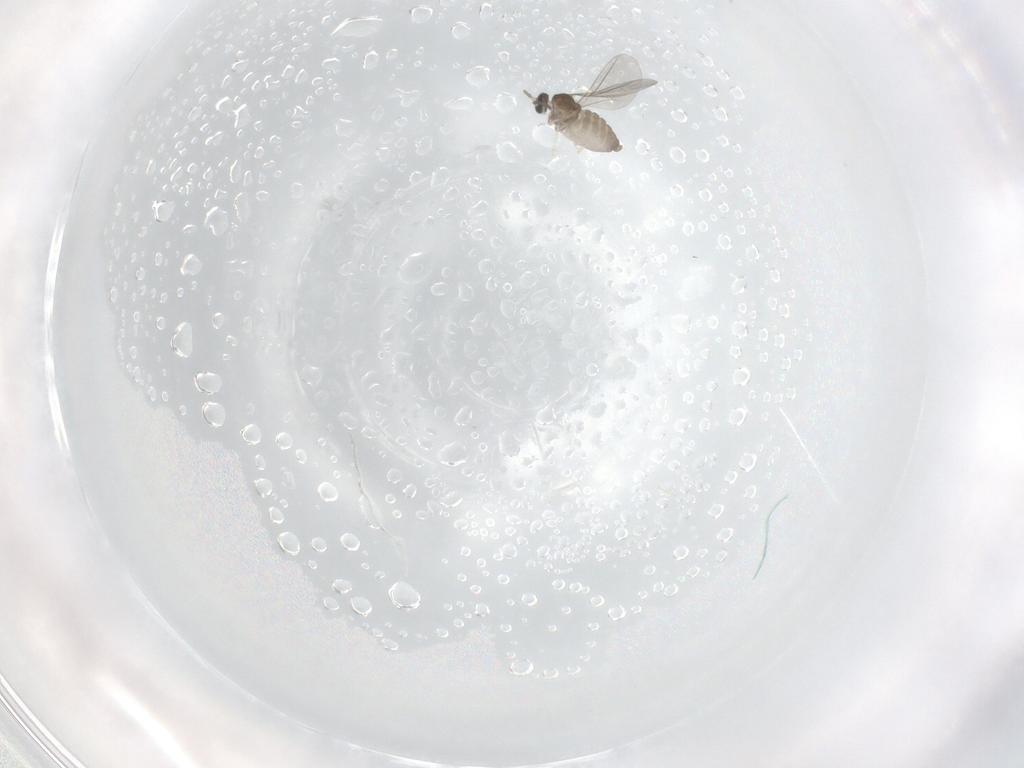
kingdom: Animalia
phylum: Arthropoda
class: Insecta
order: Diptera
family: Cecidomyiidae
